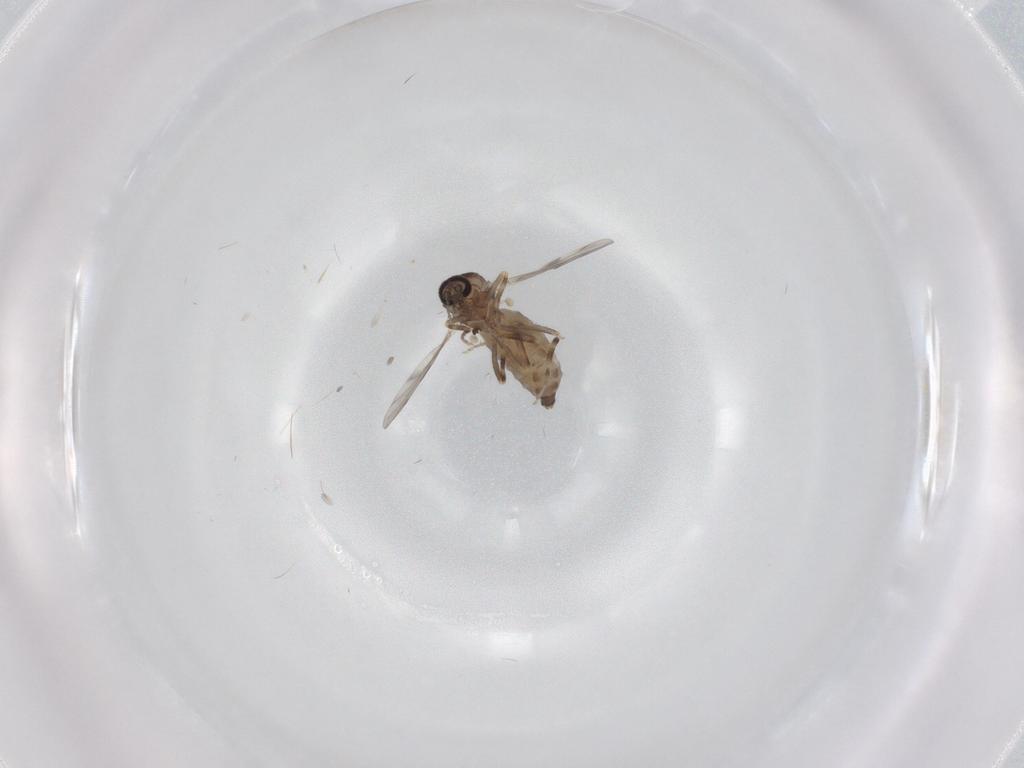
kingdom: Animalia
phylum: Arthropoda
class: Insecta
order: Diptera
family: Ceratopogonidae
